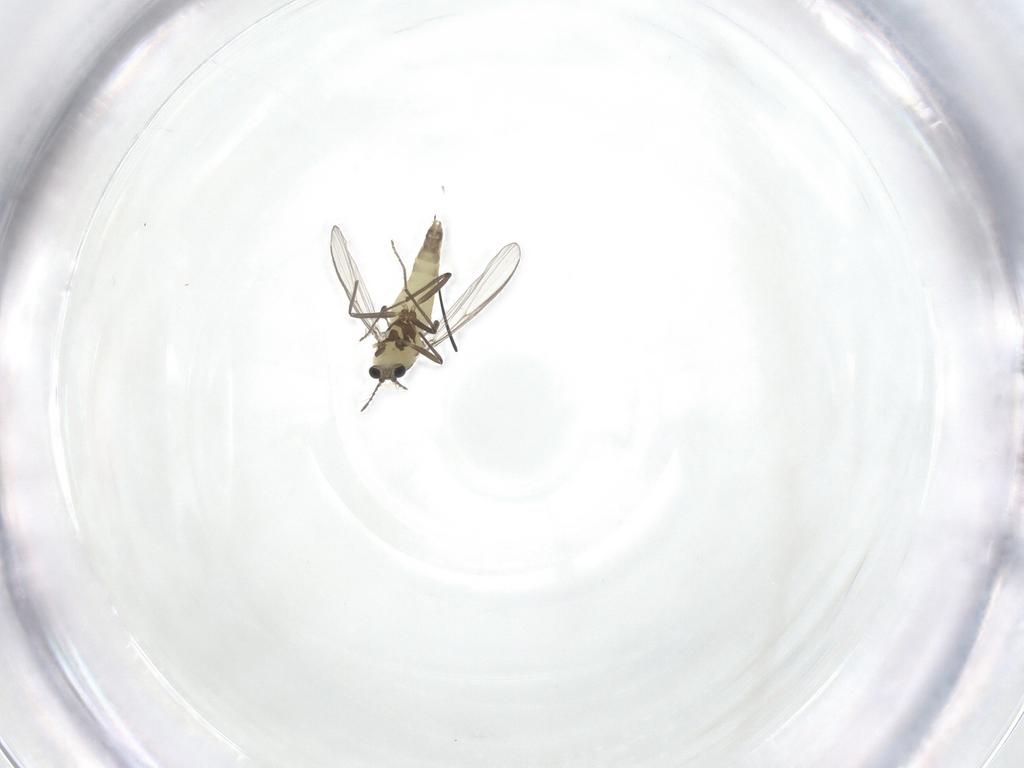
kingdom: Animalia
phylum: Arthropoda
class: Insecta
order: Diptera
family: Chironomidae
